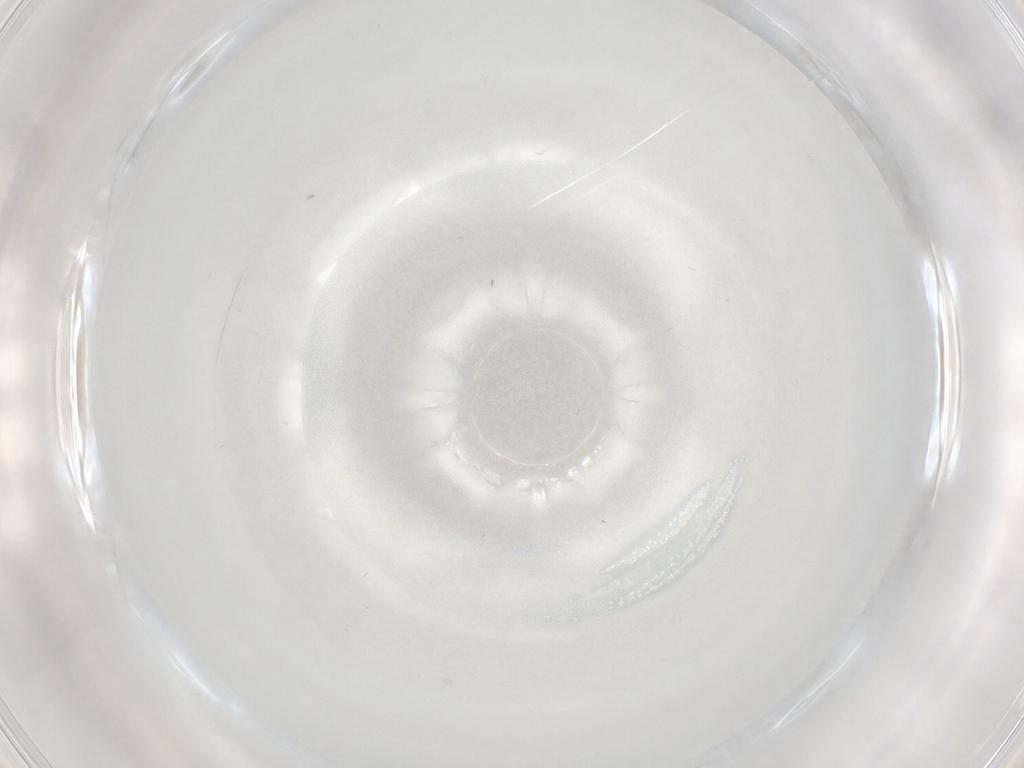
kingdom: Animalia
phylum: Arthropoda
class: Insecta
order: Diptera
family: Cecidomyiidae
